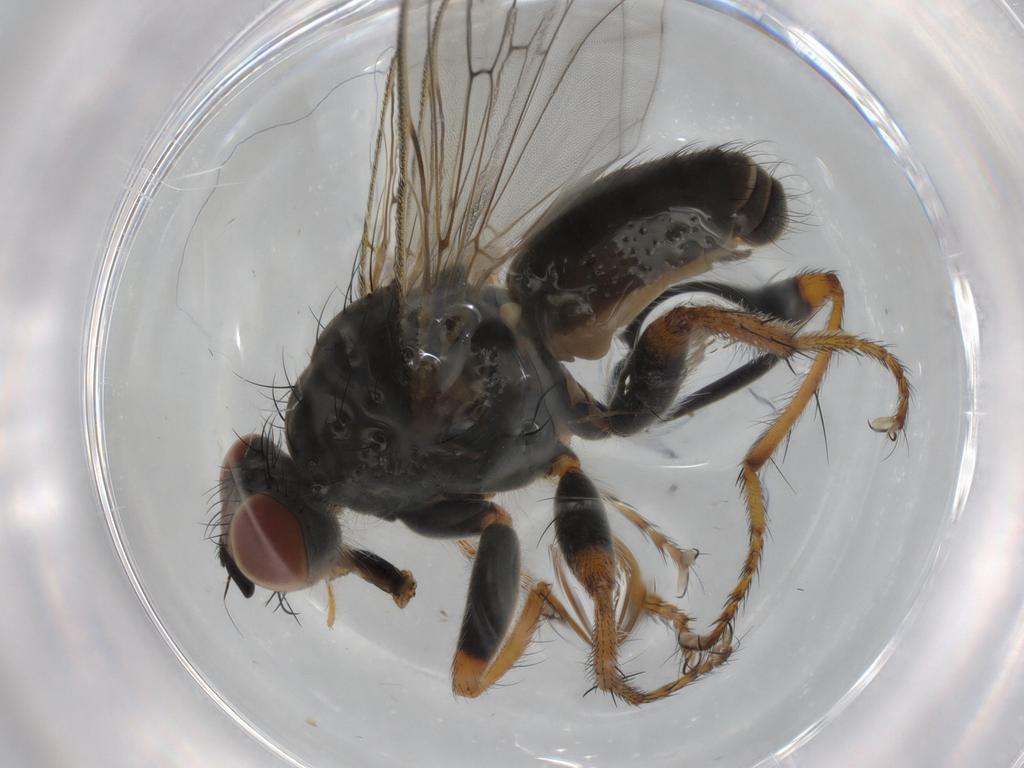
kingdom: Animalia
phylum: Arthropoda
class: Insecta
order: Diptera
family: Scathophagidae
